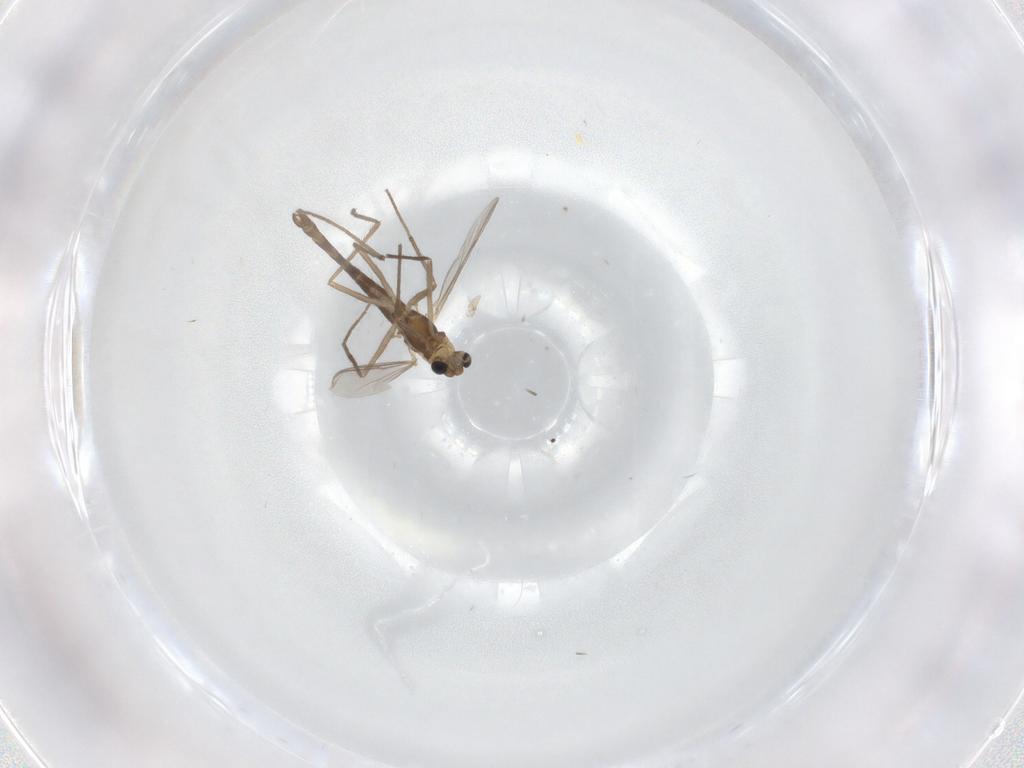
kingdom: Animalia
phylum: Arthropoda
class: Insecta
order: Diptera
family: Chironomidae
